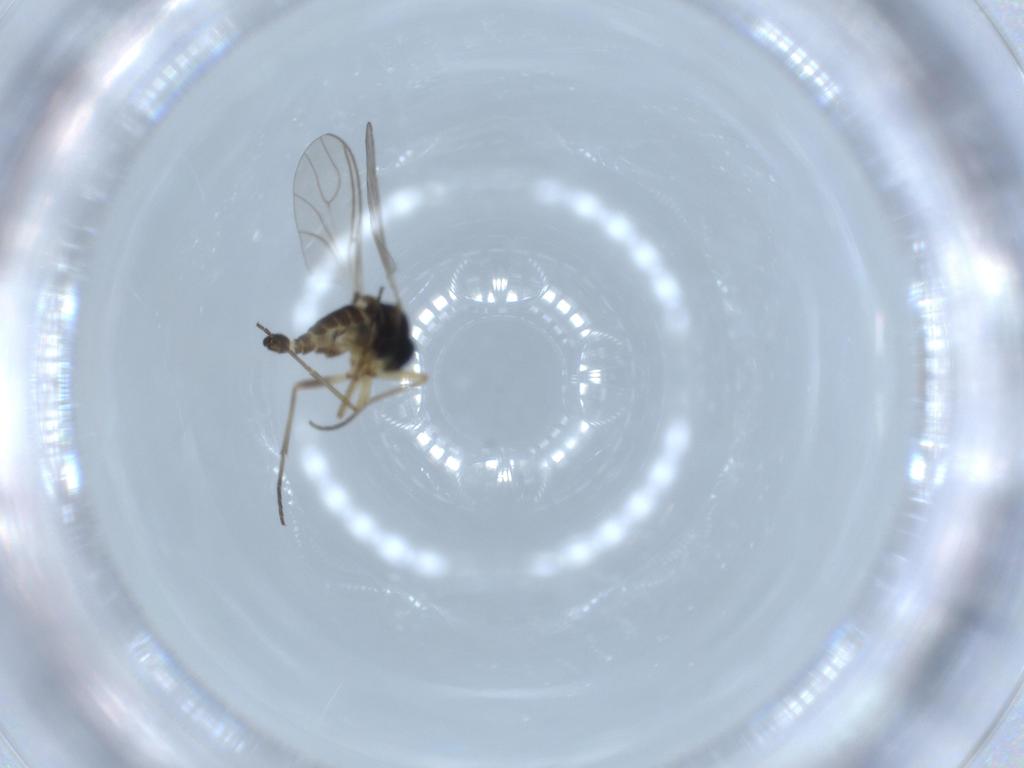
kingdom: Animalia
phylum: Arthropoda
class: Insecta
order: Diptera
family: Sciaridae
